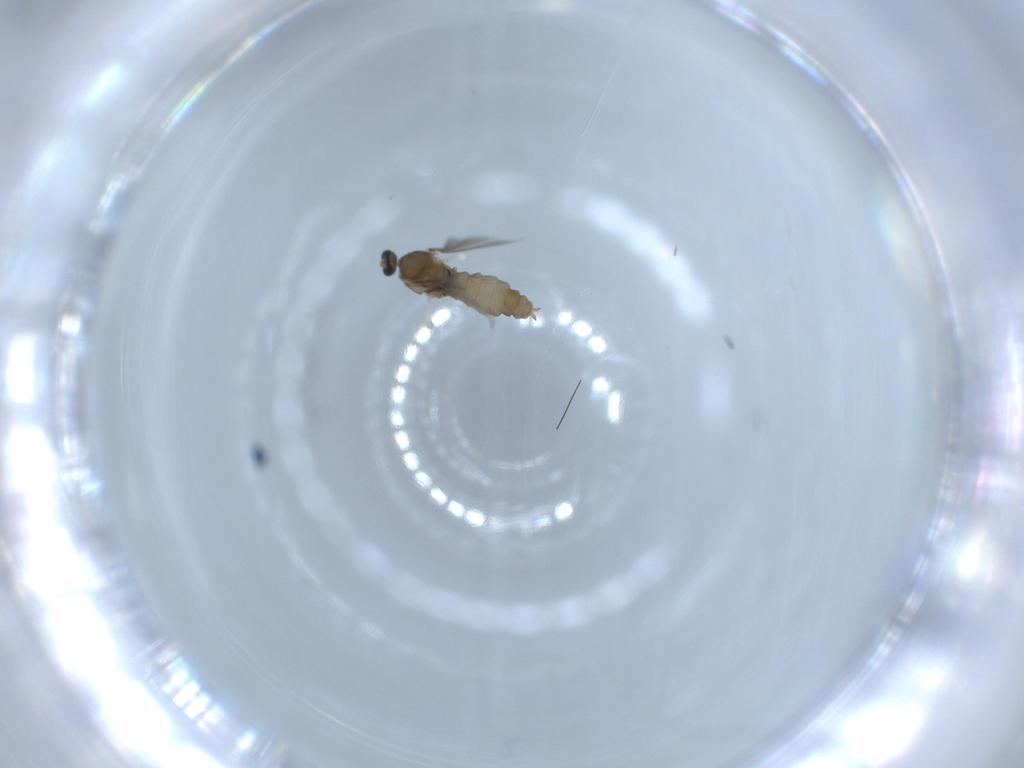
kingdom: Animalia
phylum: Arthropoda
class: Insecta
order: Diptera
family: Cecidomyiidae
